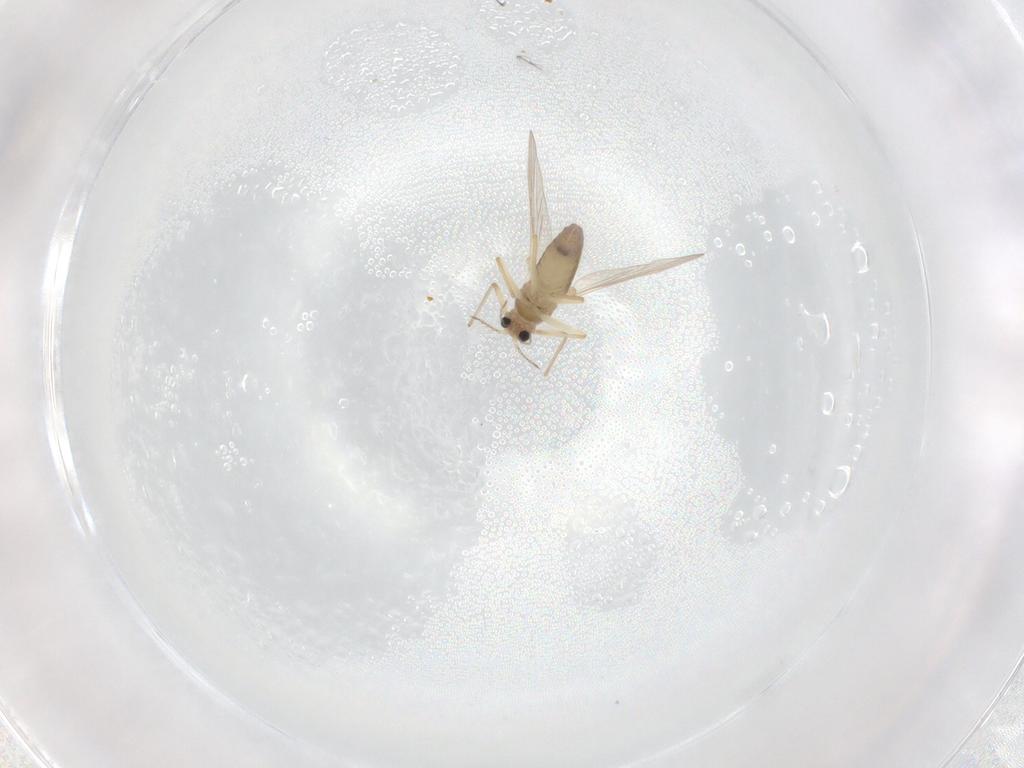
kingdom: Animalia
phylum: Arthropoda
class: Insecta
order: Diptera
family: Chironomidae
